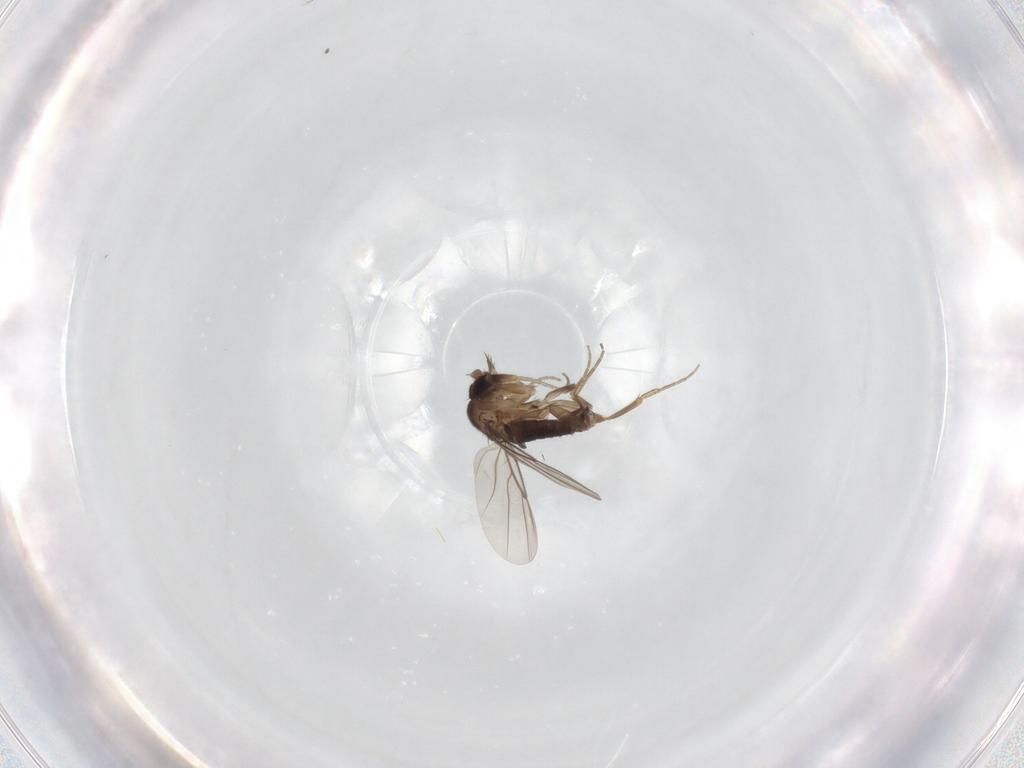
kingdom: Animalia
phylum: Arthropoda
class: Insecta
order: Diptera
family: Phoridae
